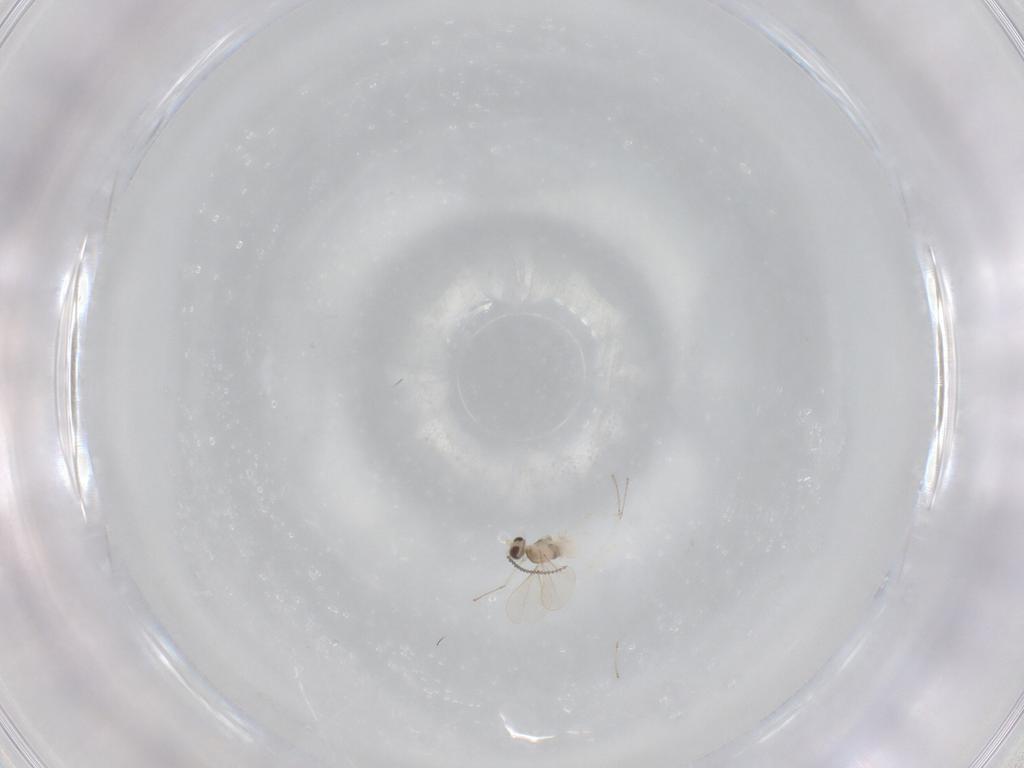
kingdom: Animalia
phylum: Arthropoda
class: Insecta
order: Diptera
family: Cecidomyiidae
